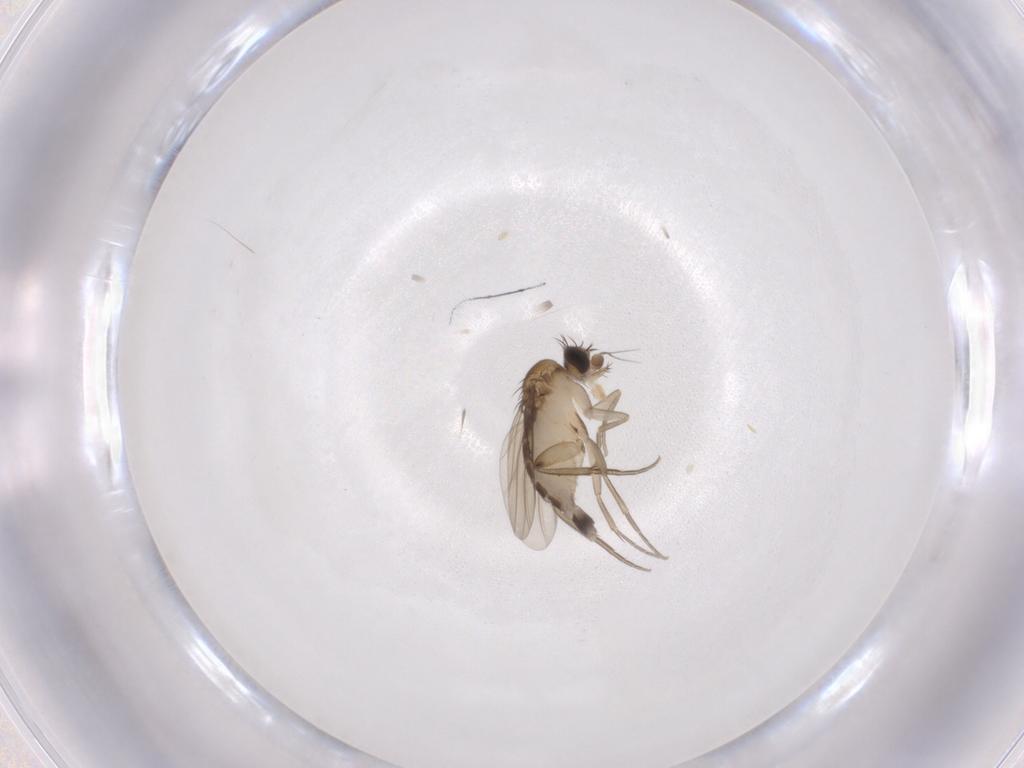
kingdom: Animalia
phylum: Arthropoda
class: Insecta
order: Diptera
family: Phoridae
